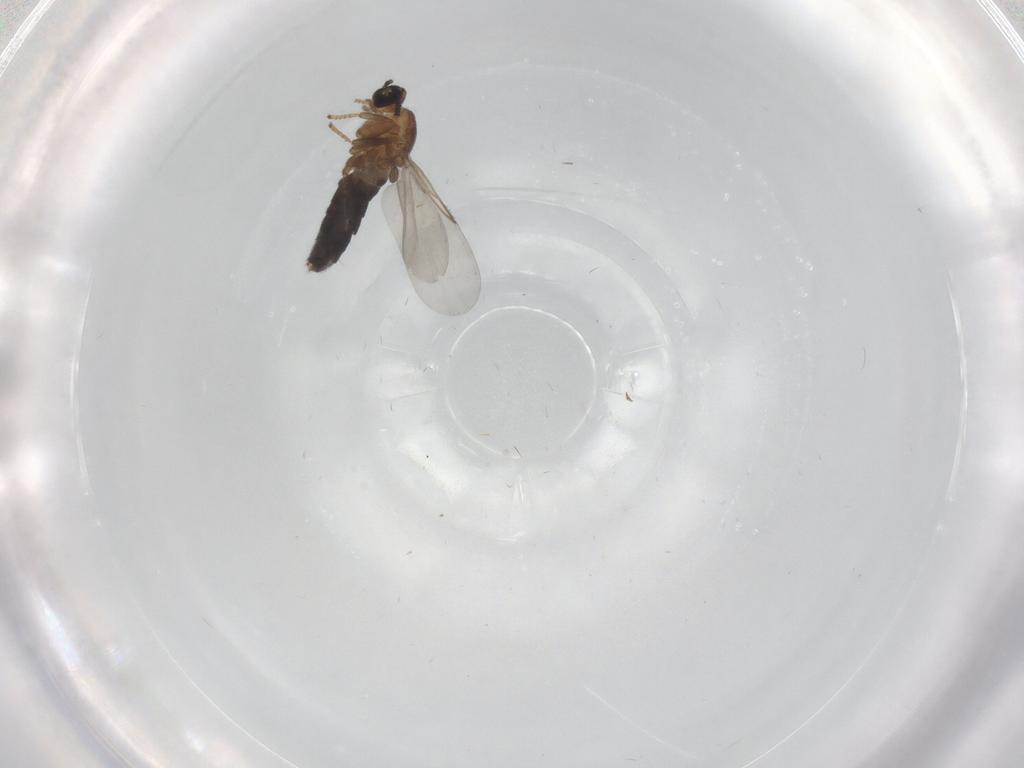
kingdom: Animalia
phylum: Arthropoda
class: Insecta
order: Diptera
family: Drosophilidae
